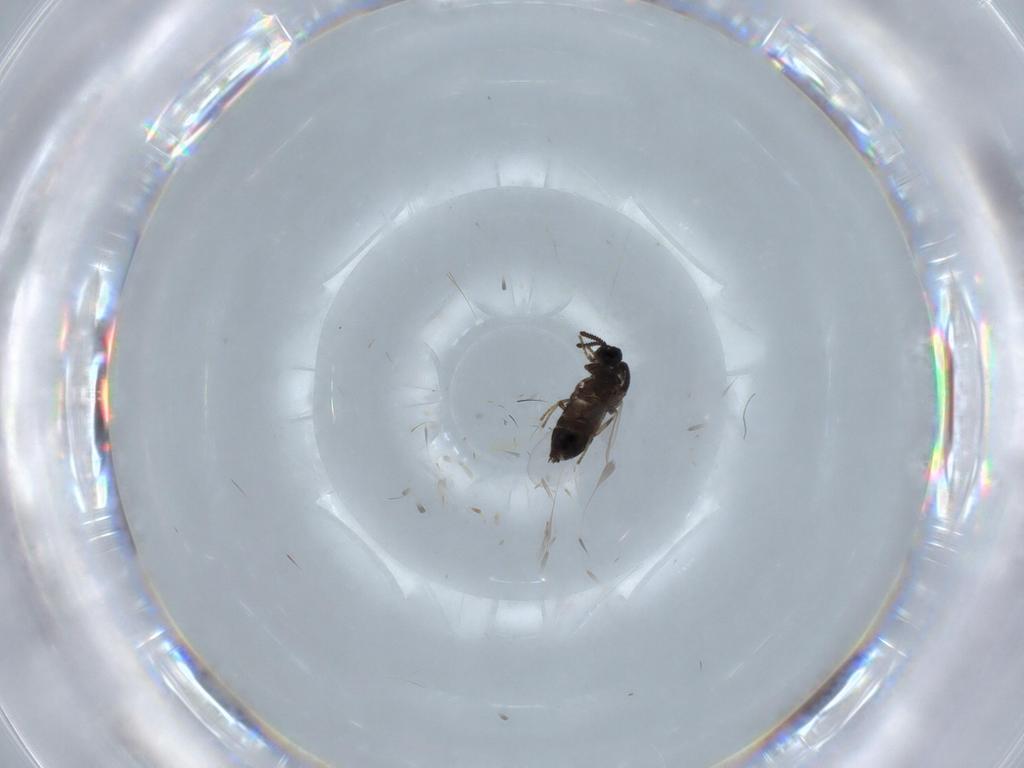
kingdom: Animalia
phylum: Arthropoda
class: Insecta
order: Diptera
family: Scatopsidae
